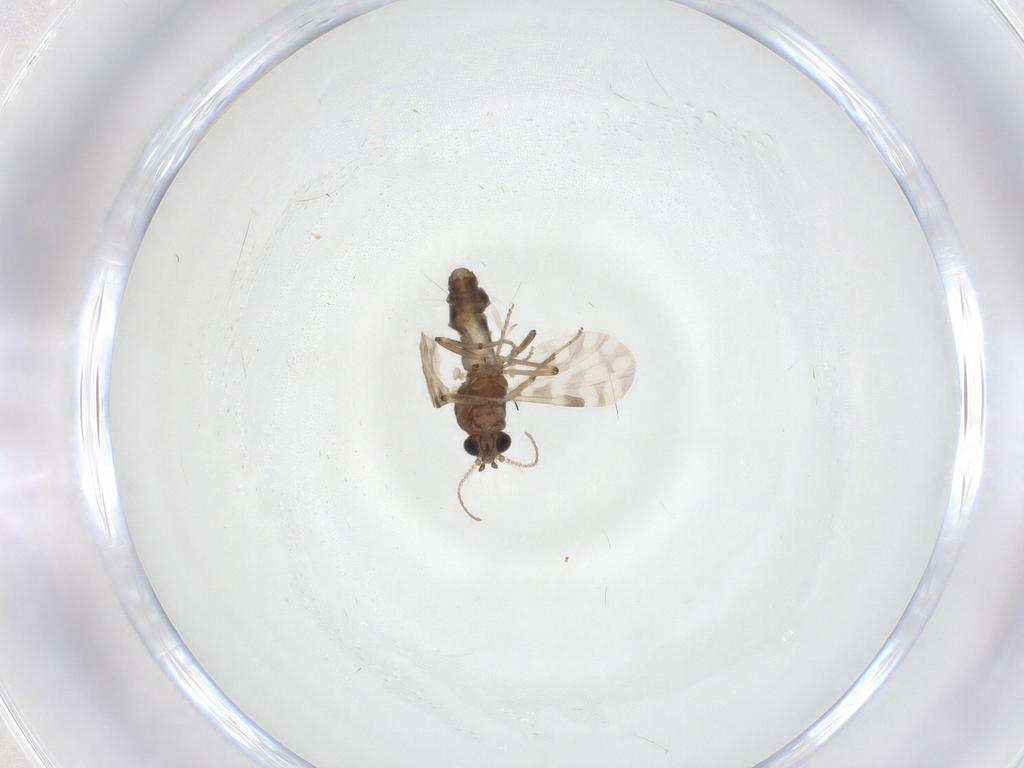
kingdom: Animalia
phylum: Arthropoda
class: Insecta
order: Diptera
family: Ceratopogonidae
